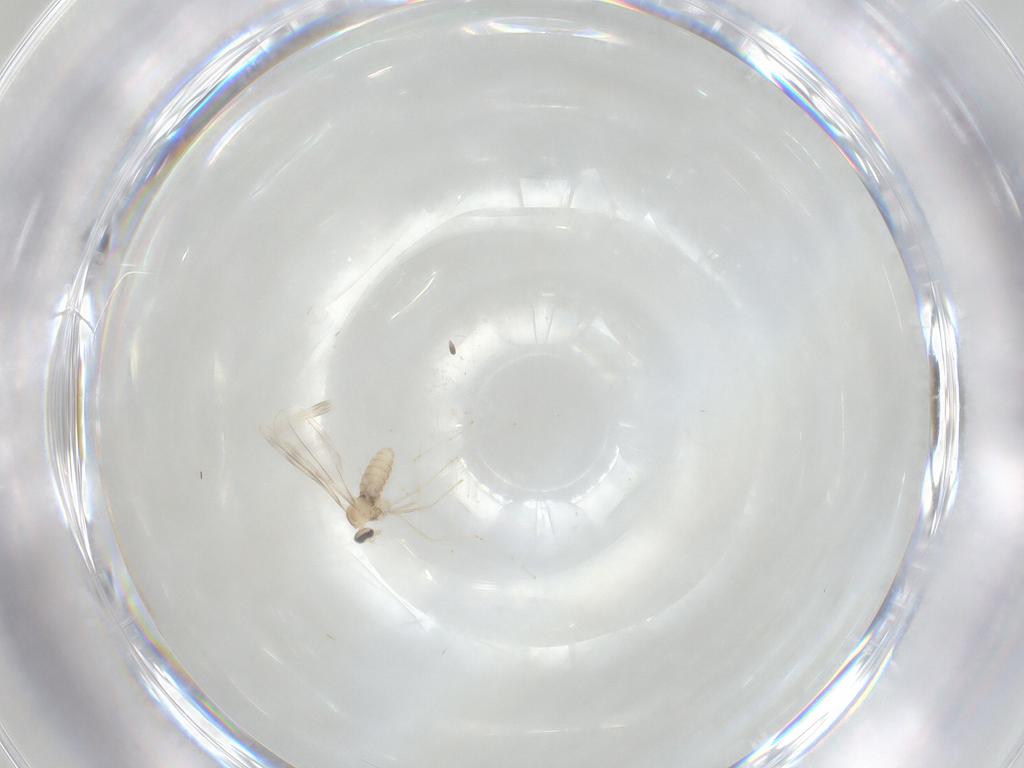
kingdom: Animalia
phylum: Arthropoda
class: Insecta
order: Diptera
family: Cecidomyiidae
